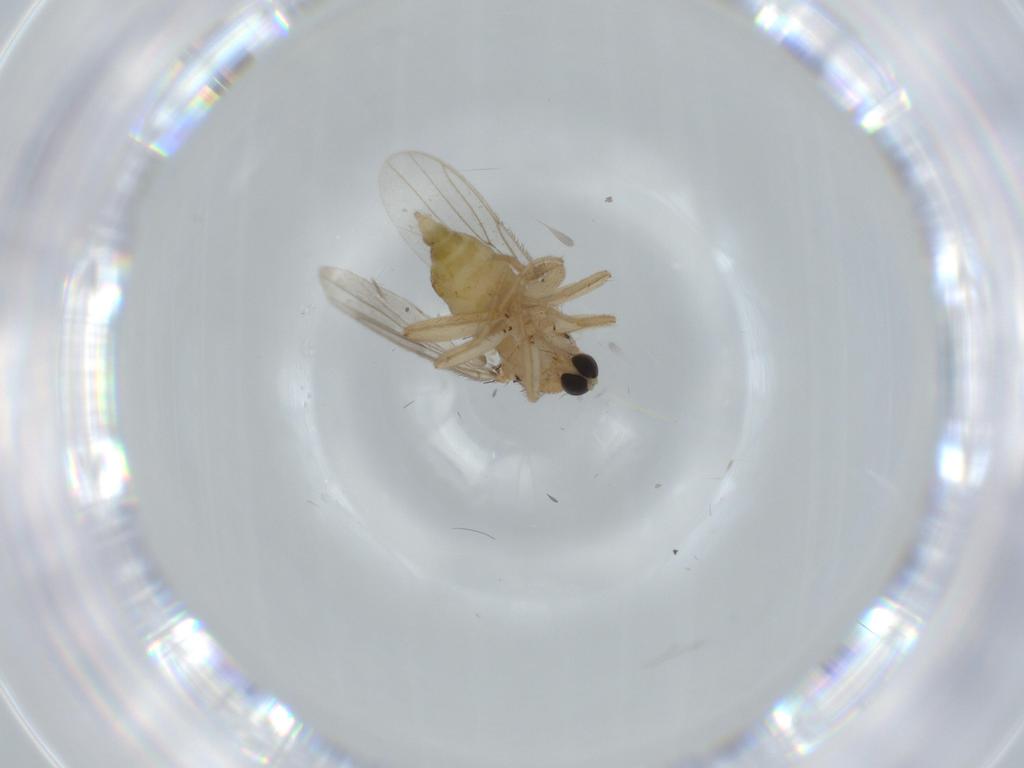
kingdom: Animalia
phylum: Arthropoda
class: Insecta
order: Diptera
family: Hybotidae
